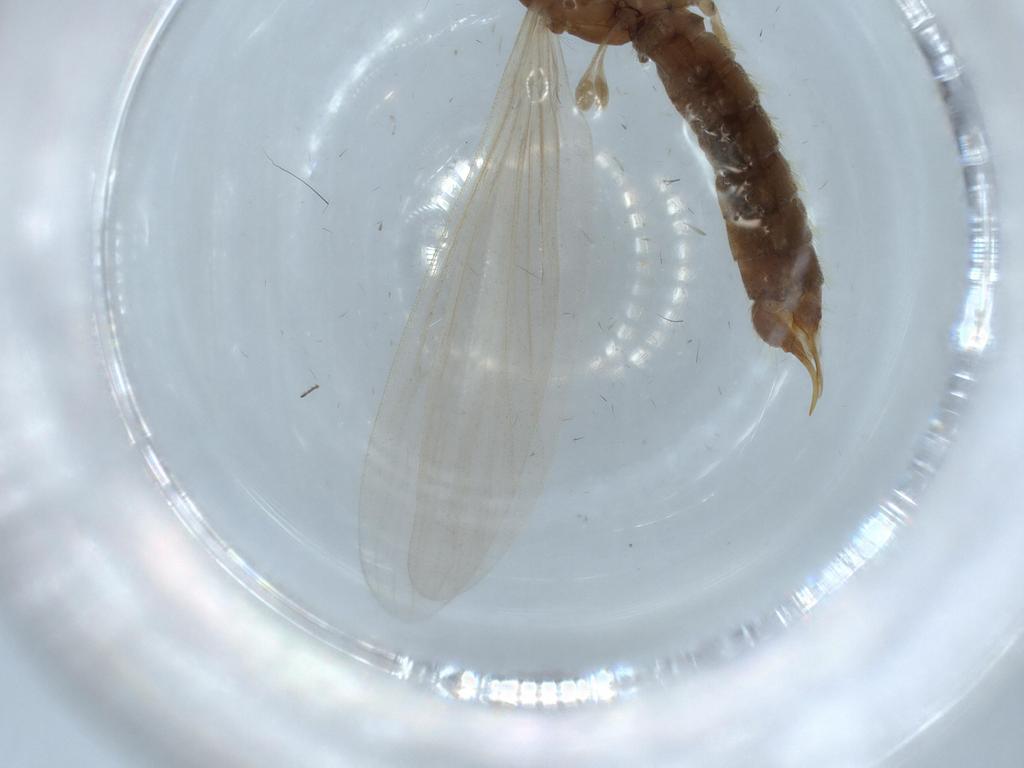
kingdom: Animalia
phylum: Arthropoda
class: Insecta
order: Diptera
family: Limoniidae
